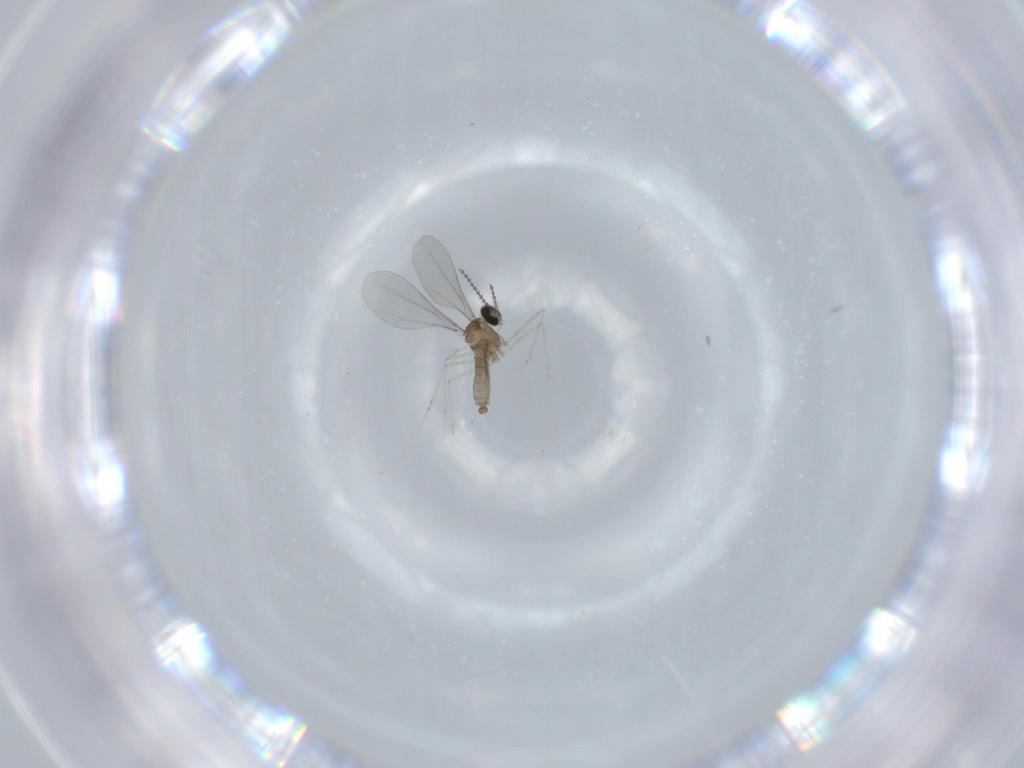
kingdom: Animalia
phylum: Arthropoda
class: Insecta
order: Diptera
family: Cecidomyiidae
